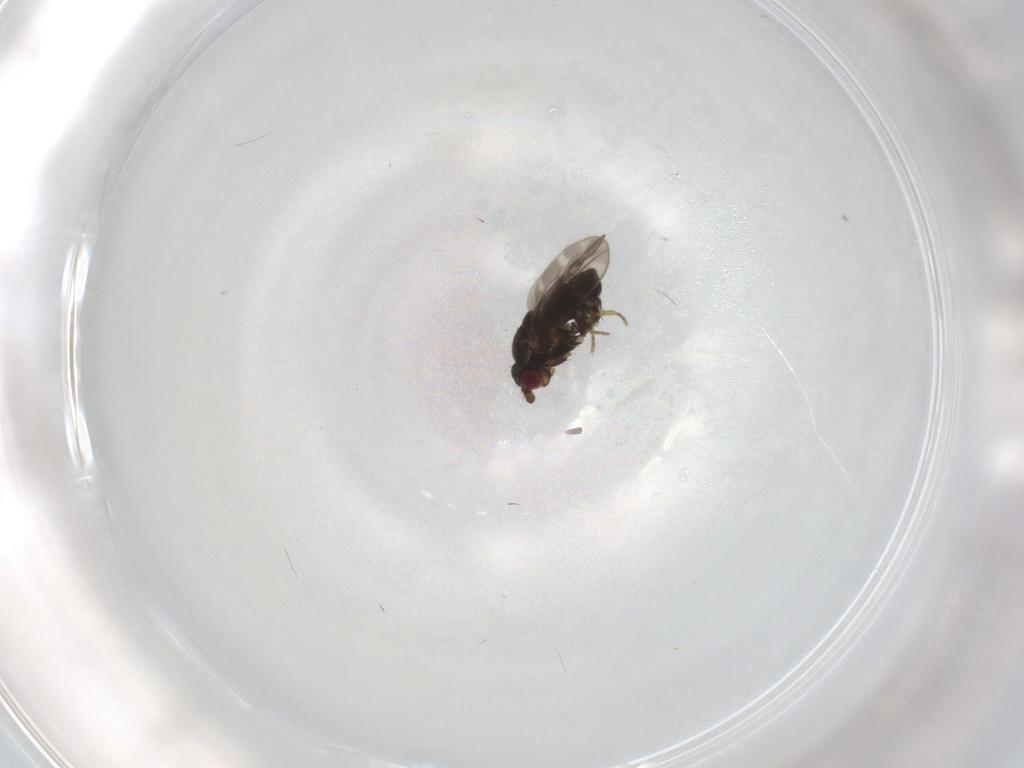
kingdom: Animalia
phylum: Arthropoda
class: Insecta
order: Diptera
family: Sphaeroceridae
